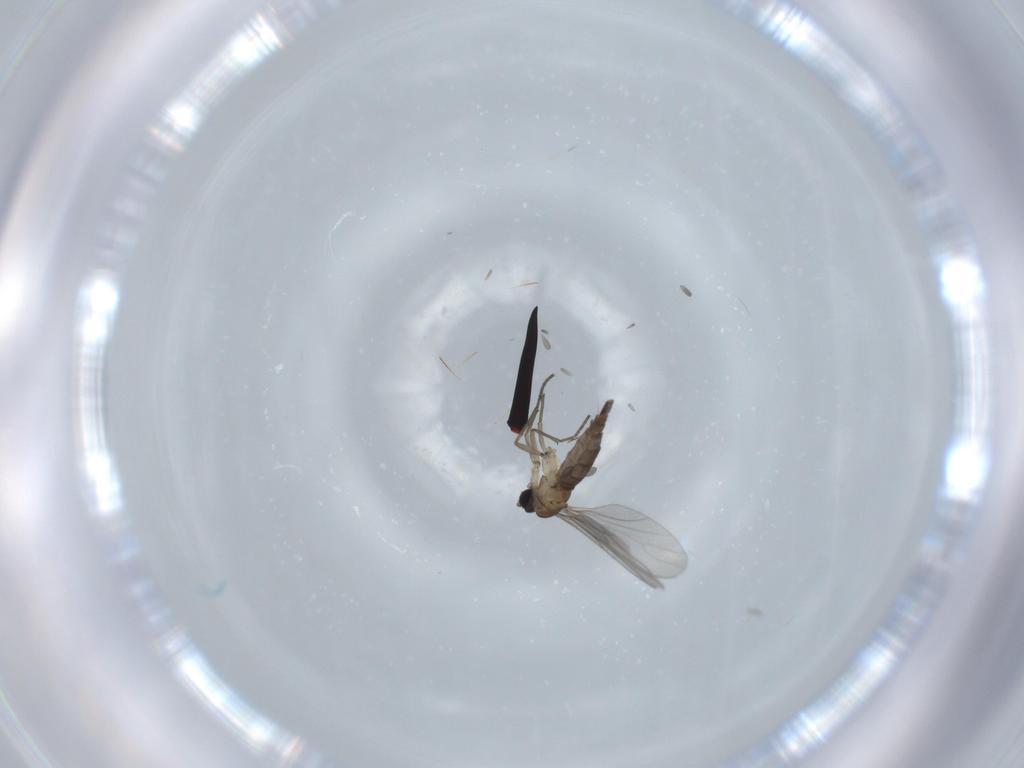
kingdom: Animalia
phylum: Arthropoda
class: Insecta
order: Diptera
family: Sciaridae
